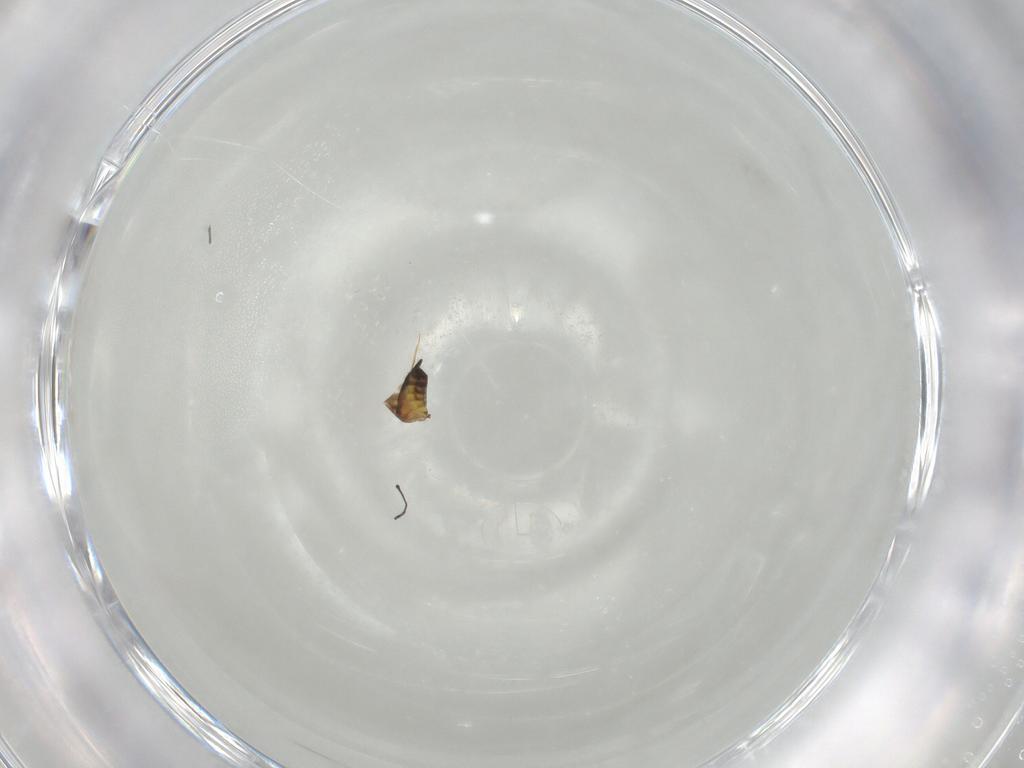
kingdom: Animalia
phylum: Arthropoda
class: Insecta
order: Hymenoptera
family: Eulophidae
